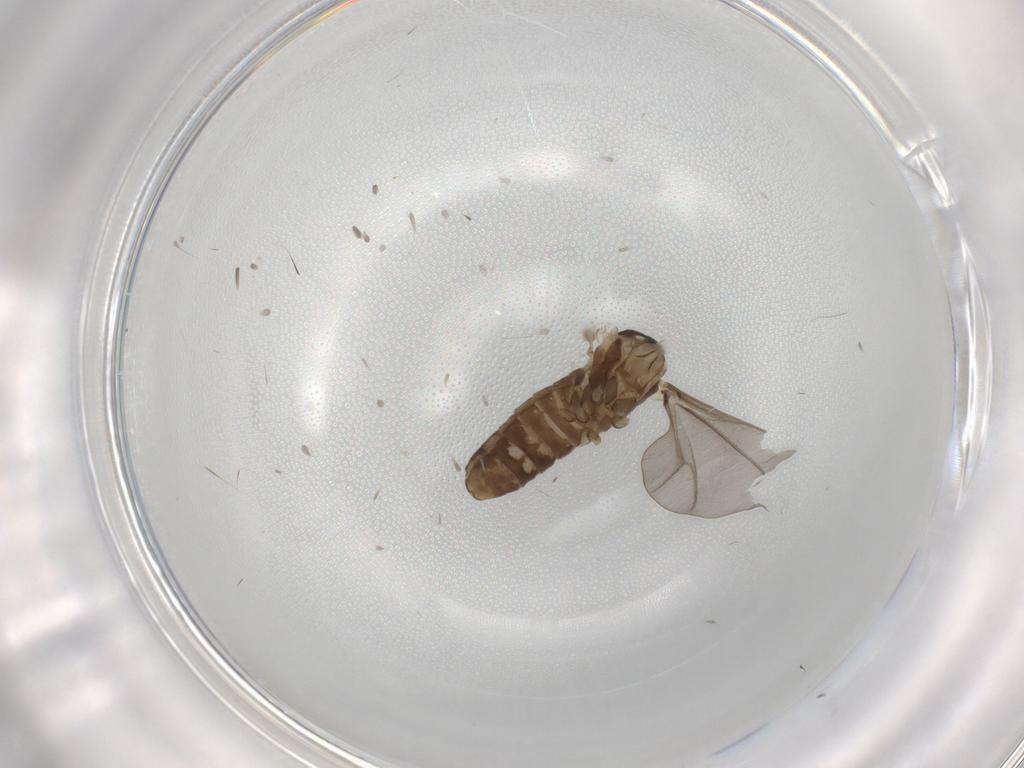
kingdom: Animalia
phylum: Arthropoda
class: Insecta
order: Diptera
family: Cecidomyiidae
